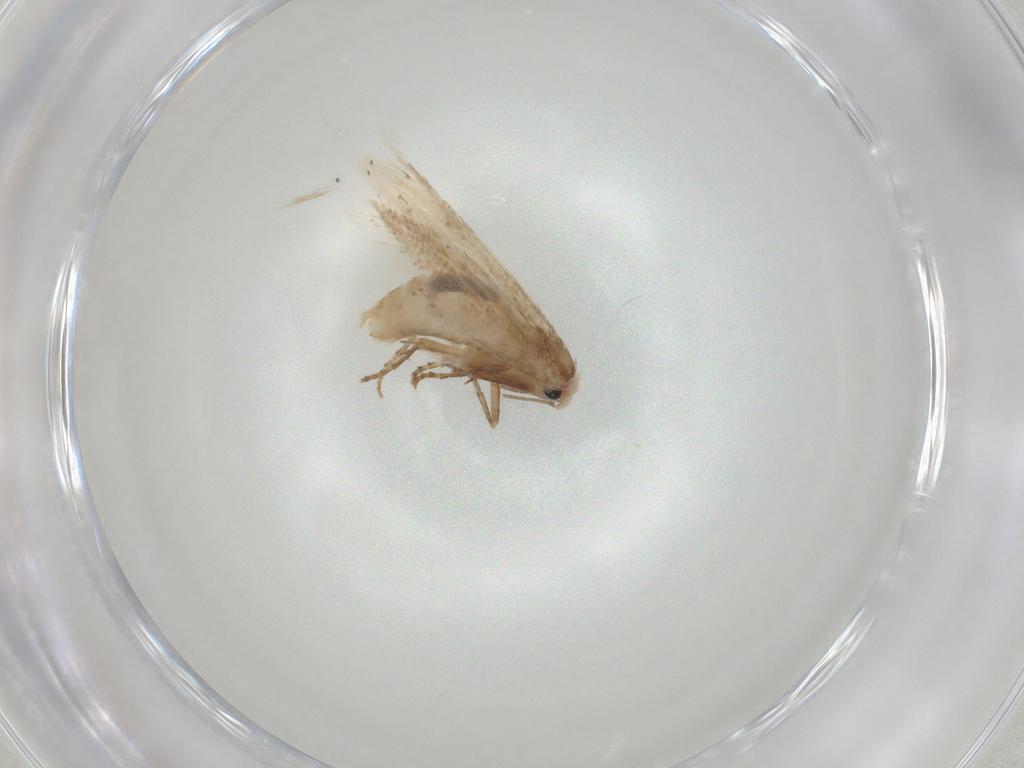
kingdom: Animalia
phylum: Arthropoda
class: Insecta
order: Lepidoptera
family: Bucculatricidae
